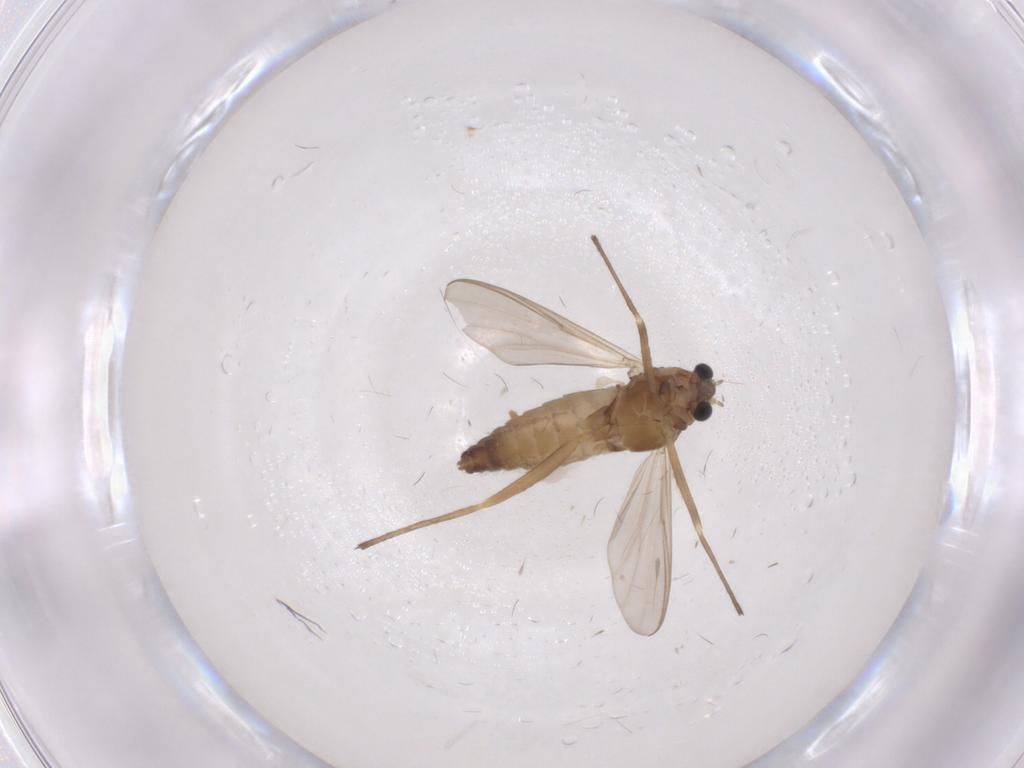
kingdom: Animalia
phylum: Arthropoda
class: Insecta
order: Diptera
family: Chironomidae
